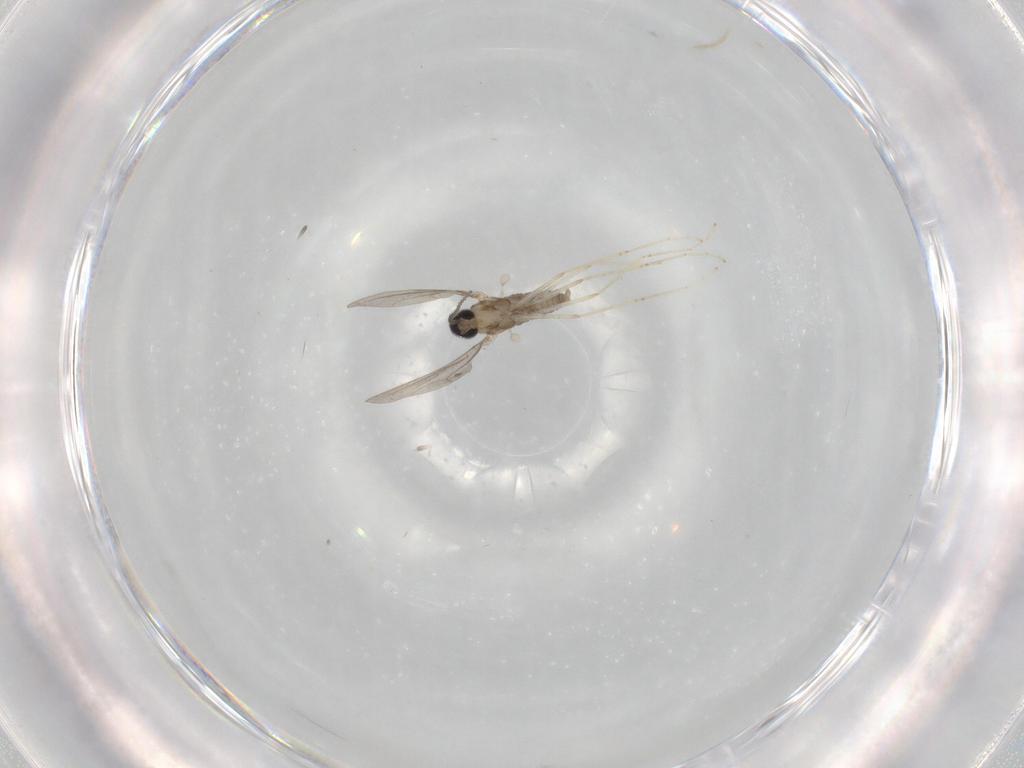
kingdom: Animalia
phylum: Arthropoda
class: Insecta
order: Diptera
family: Cecidomyiidae
